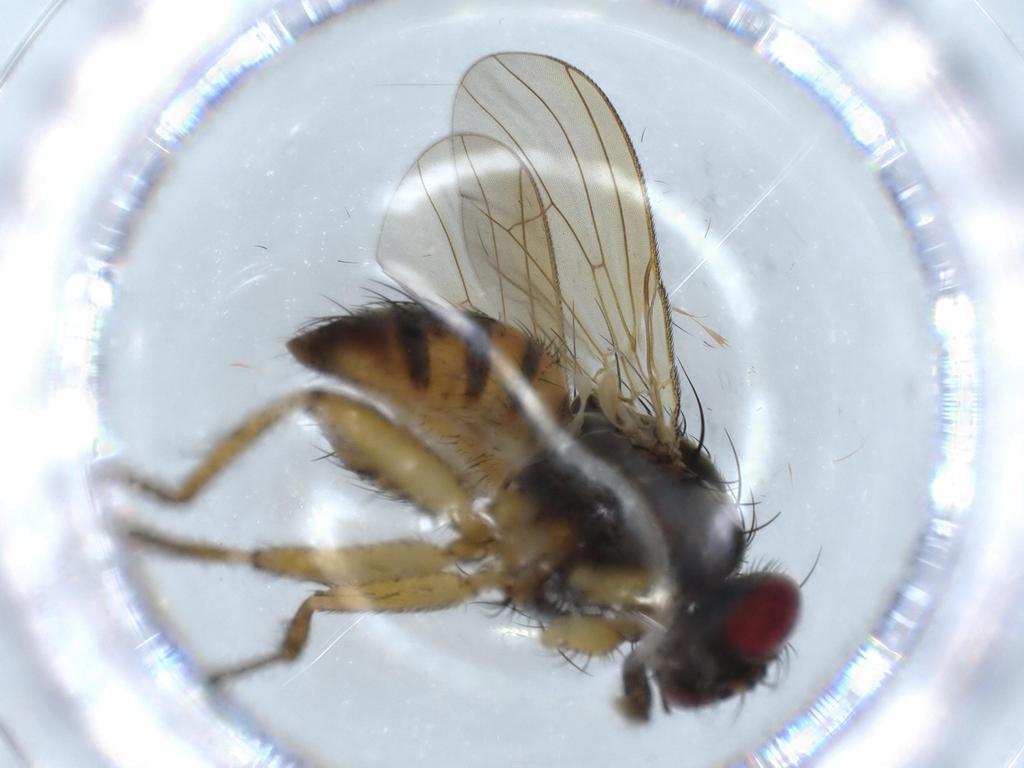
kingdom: Animalia
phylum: Arthropoda
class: Insecta
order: Diptera
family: Muscidae
